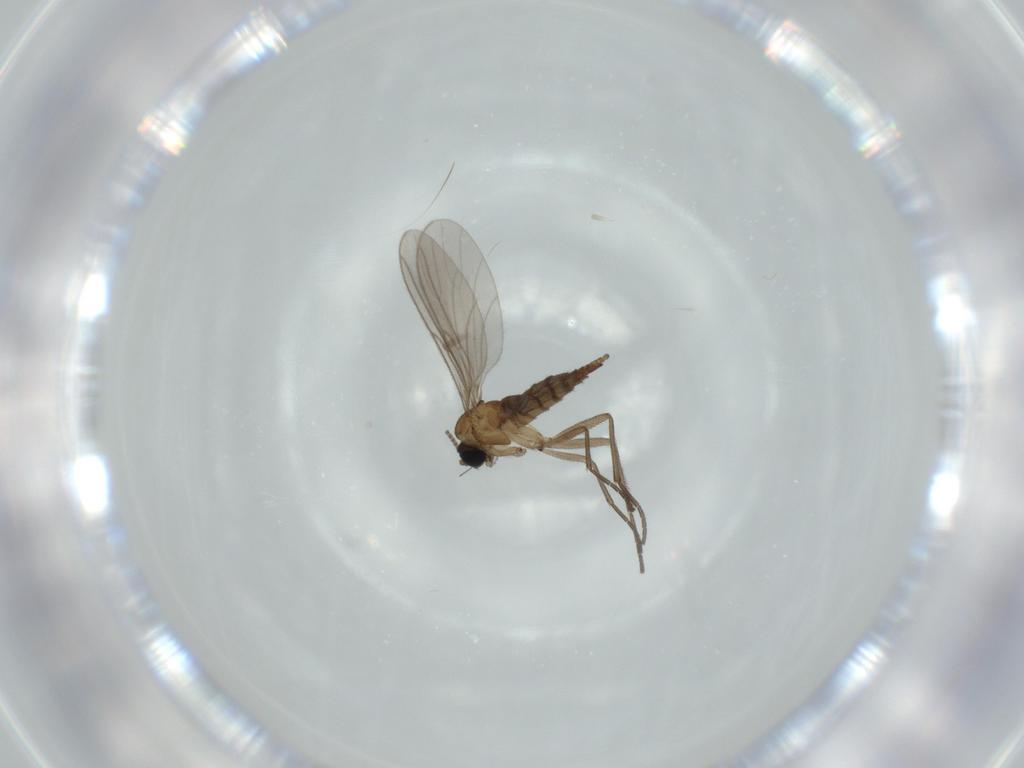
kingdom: Animalia
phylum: Arthropoda
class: Insecta
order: Diptera
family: Sciaridae
